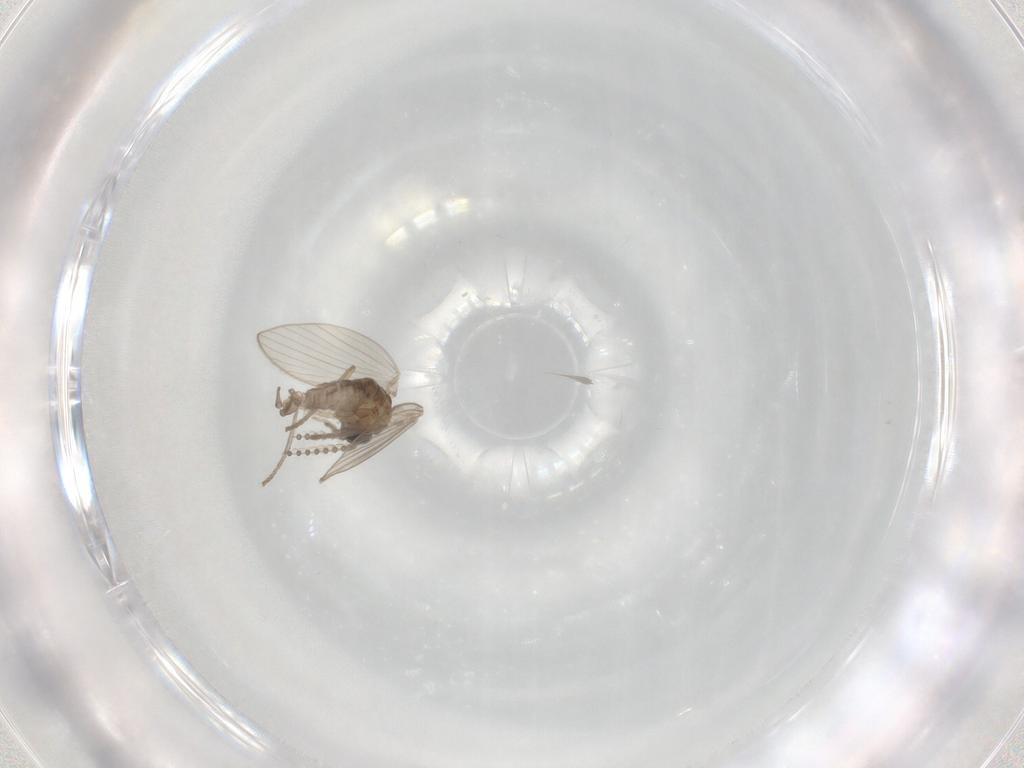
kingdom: Animalia
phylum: Arthropoda
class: Insecta
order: Diptera
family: Psychodidae
